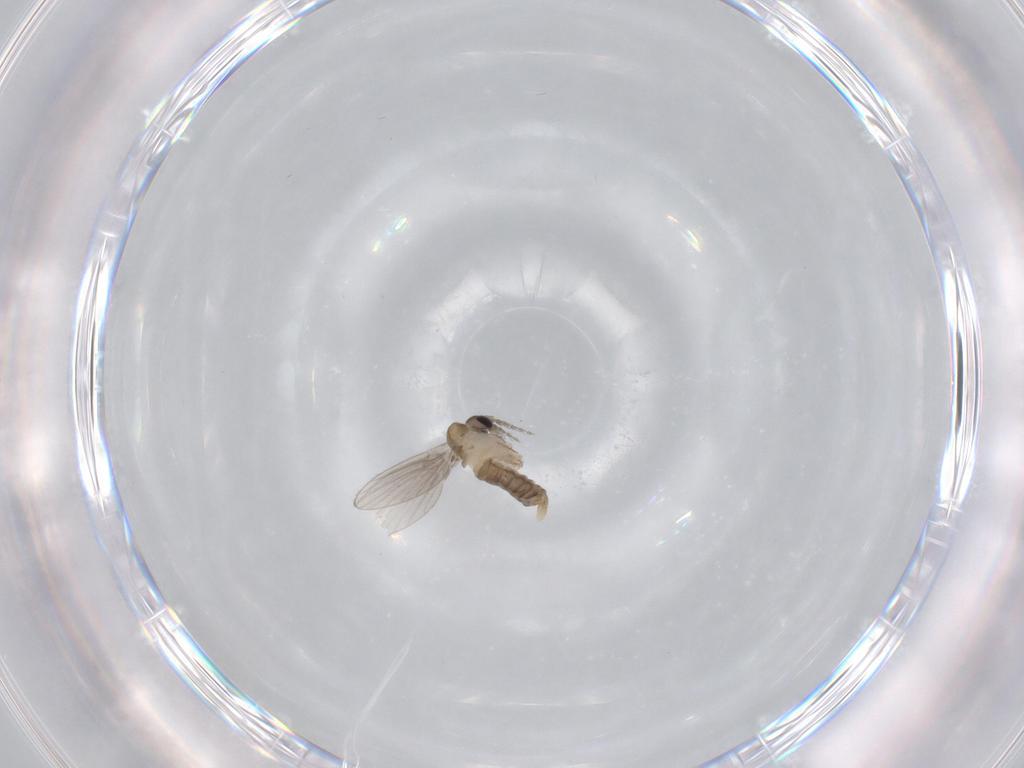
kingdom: Animalia
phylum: Arthropoda
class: Insecta
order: Diptera
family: Psychodidae
